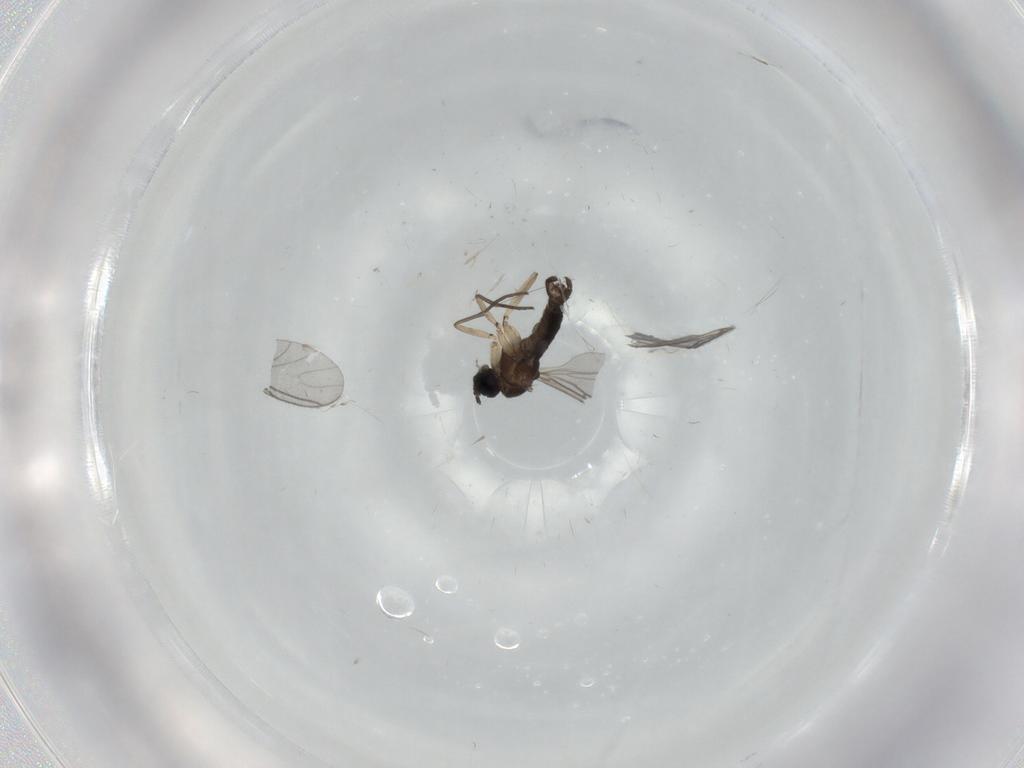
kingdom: Animalia
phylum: Arthropoda
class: Insecta
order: Diptera
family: Sciaridae
